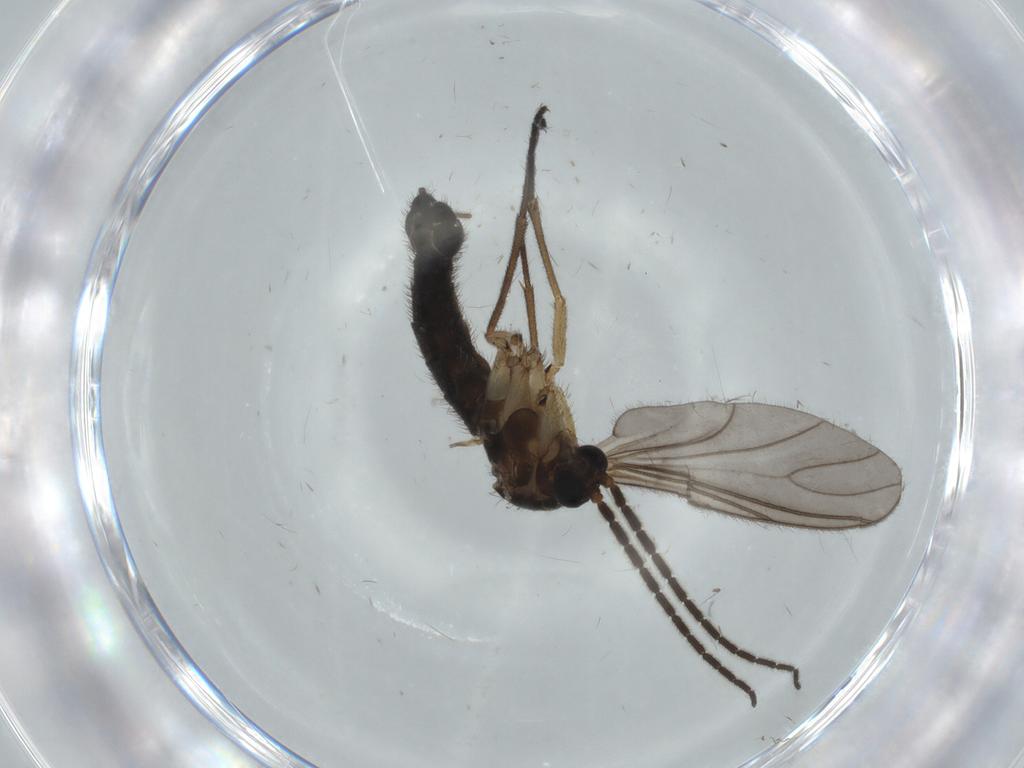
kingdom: Animalia
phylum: Arthropoda
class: Insecta
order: Diptera
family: Sciaridae
